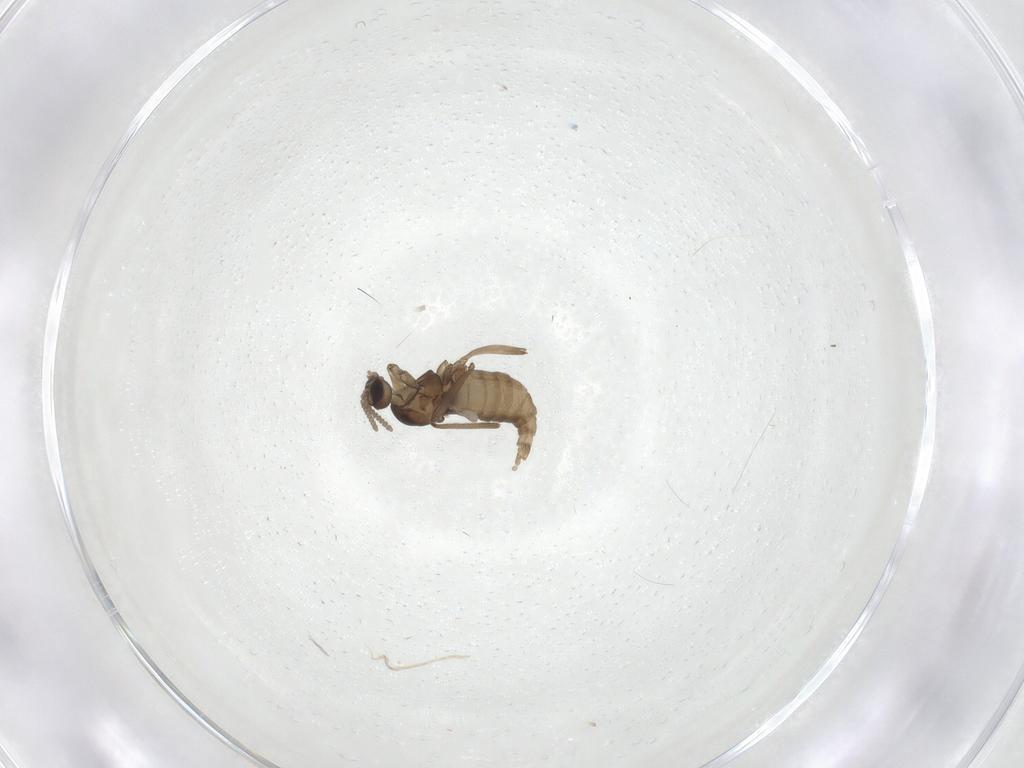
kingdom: Animalia
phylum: Arthropoda
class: Insecta
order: Diptera
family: Cecidomyiidae
